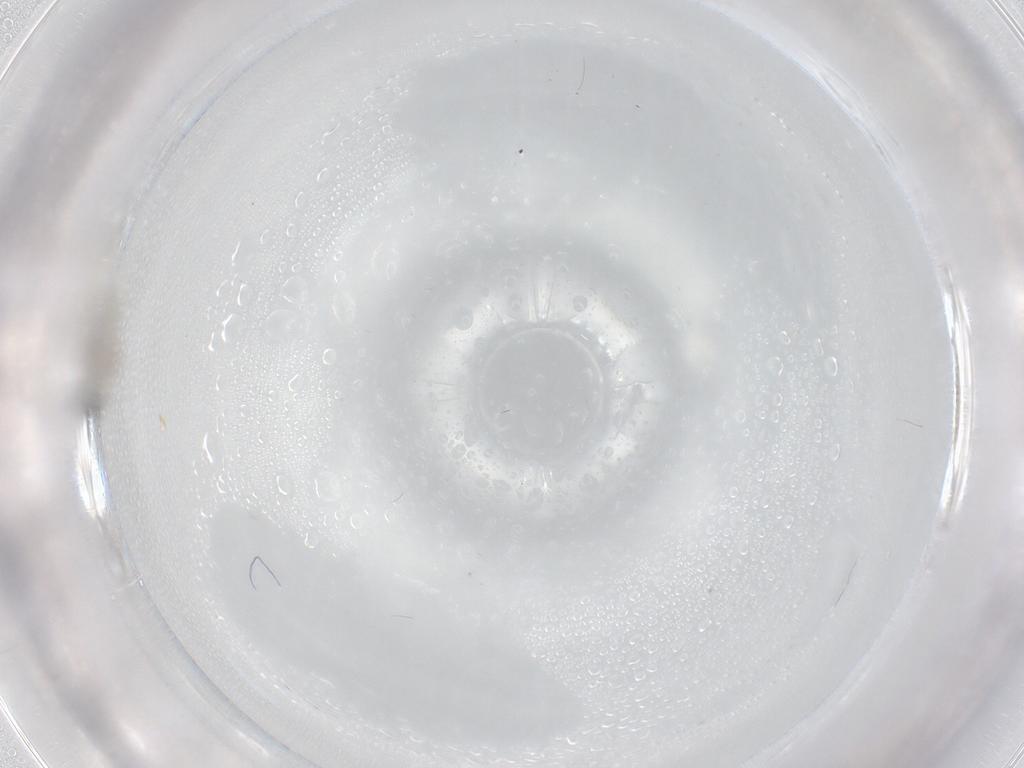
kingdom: Animalia
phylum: Arthropoda
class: Insecta
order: Diptera
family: Cecidomyiidae
